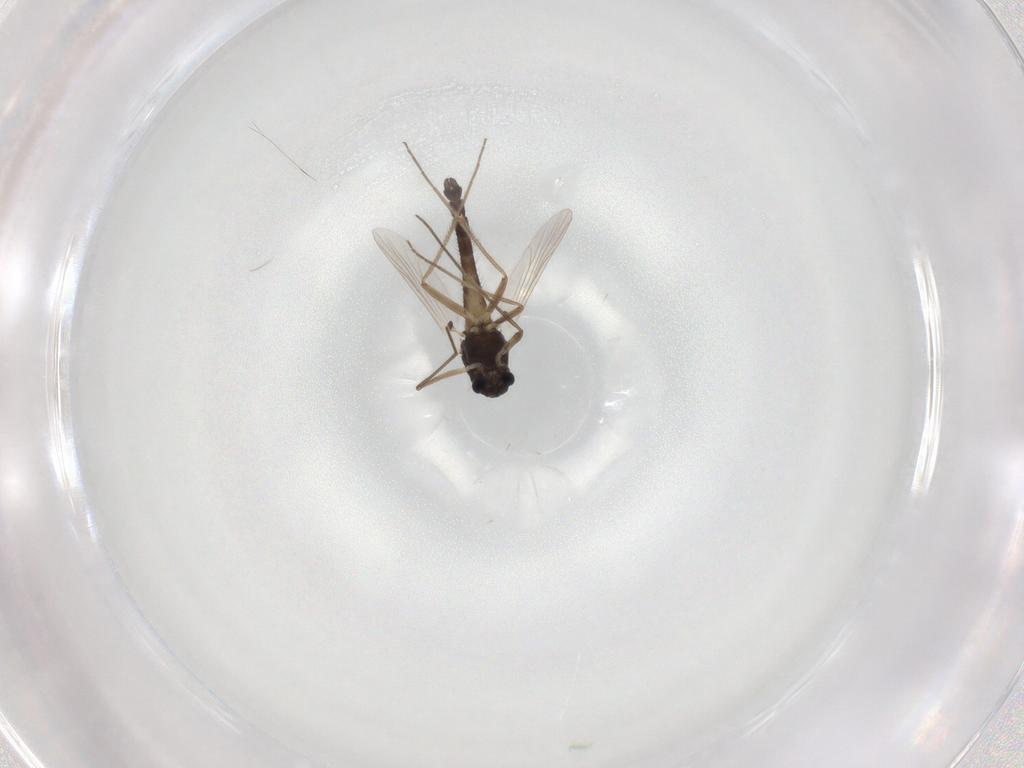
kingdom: Animalia
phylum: Arthropoda
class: Insecta
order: Diptera
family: Chironomidae
